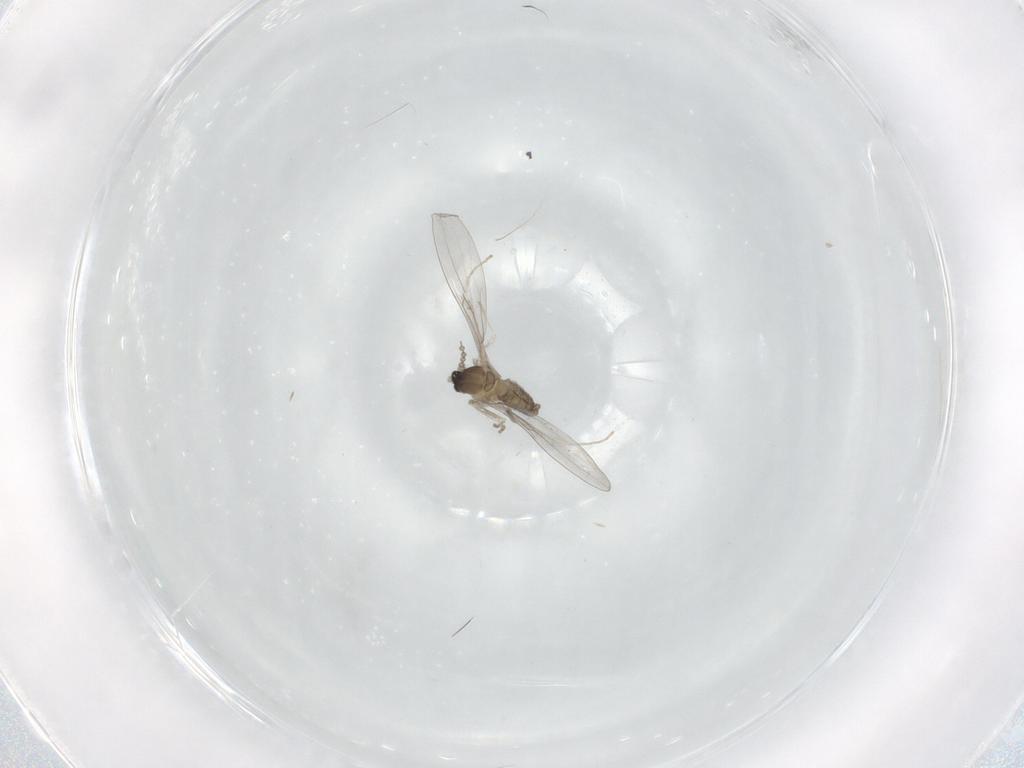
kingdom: Animalia
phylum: Arthropoda
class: Insecta
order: Diptera
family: Cecidomyiidae
